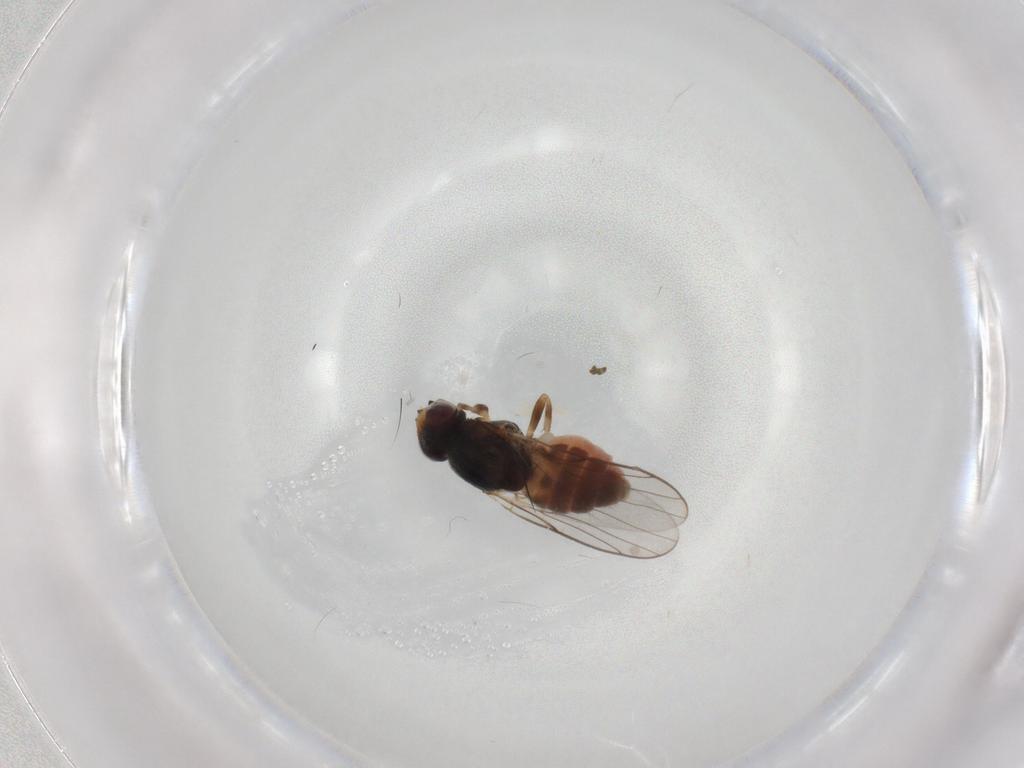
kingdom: Animalia
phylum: Arthropoda
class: Insecta
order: Diptera
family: Chloropidae
